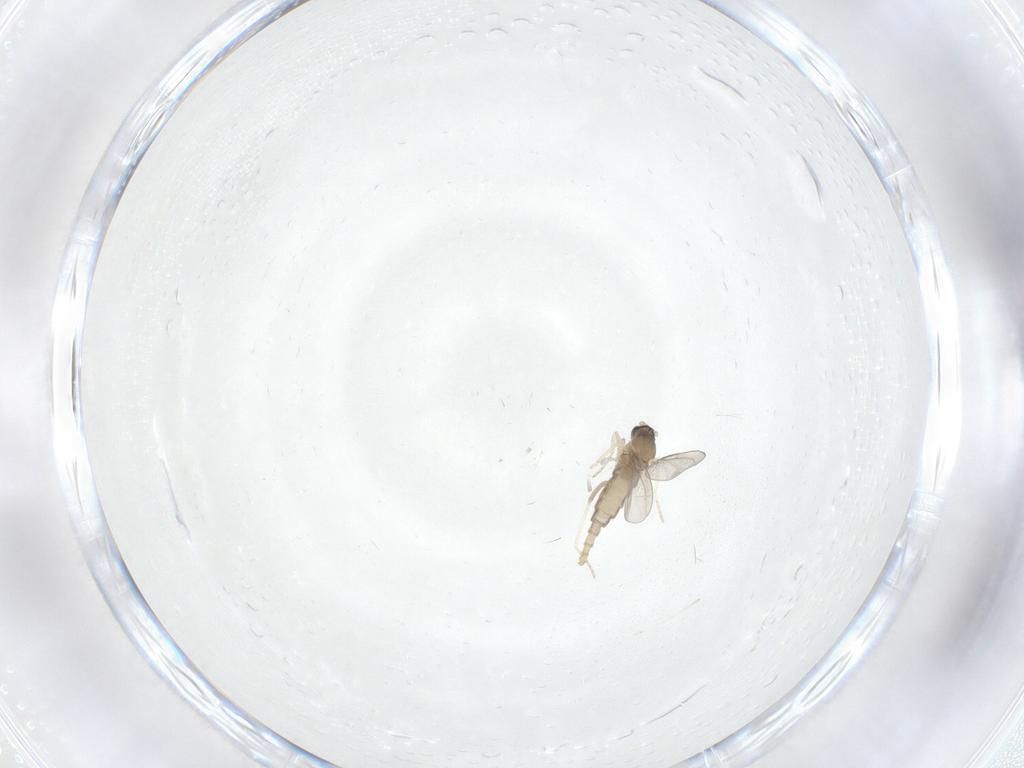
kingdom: Animalia
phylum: Arthropoda
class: Insecta
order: Diptera
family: Cecidomyiidae
